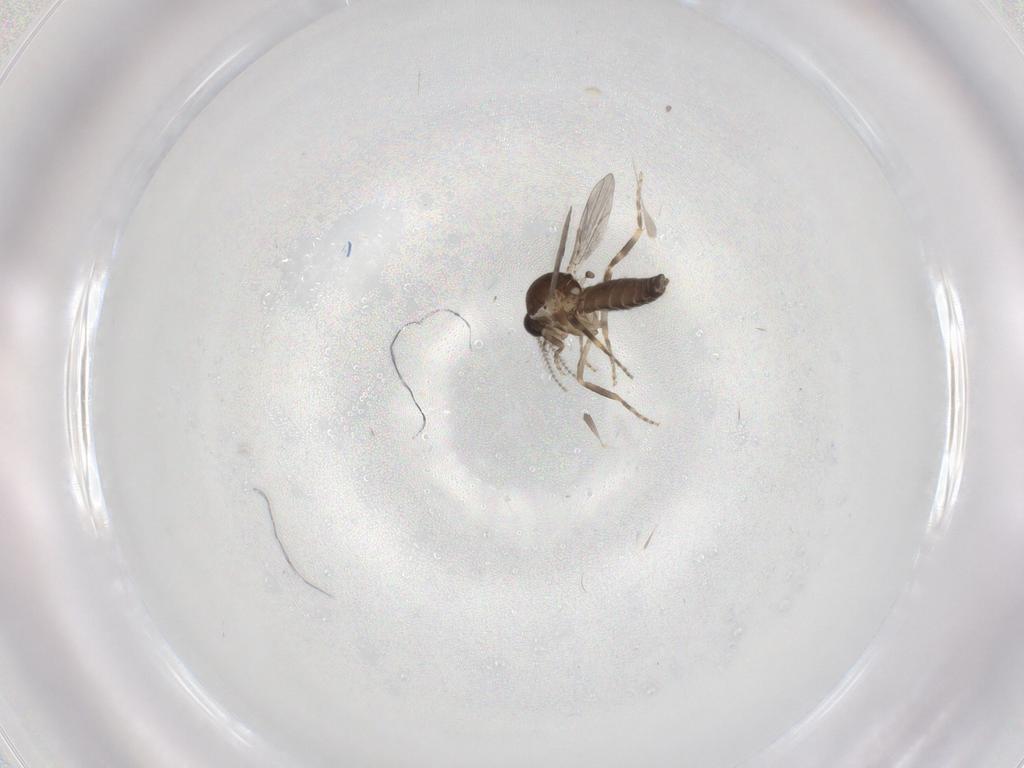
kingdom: Animalia
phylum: Arthropoda
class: Insecta
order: Diptera
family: Ceratopogonidae
